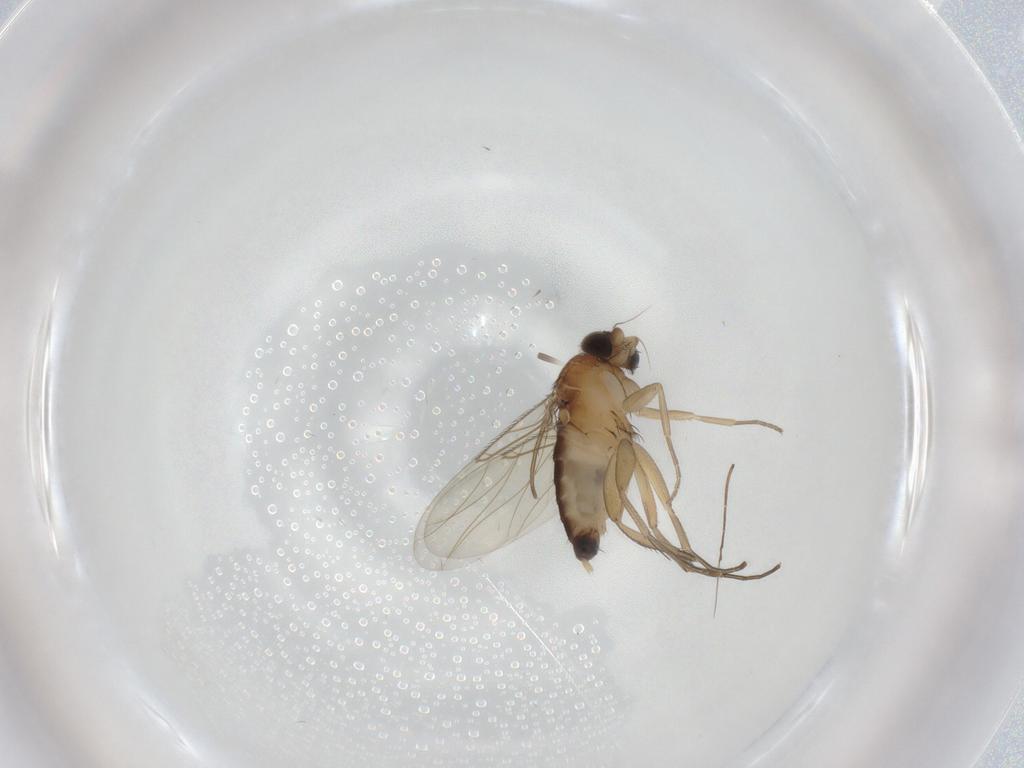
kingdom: Animalia
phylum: Arthropoda
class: Insecta
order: Diptera
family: Phoridae
